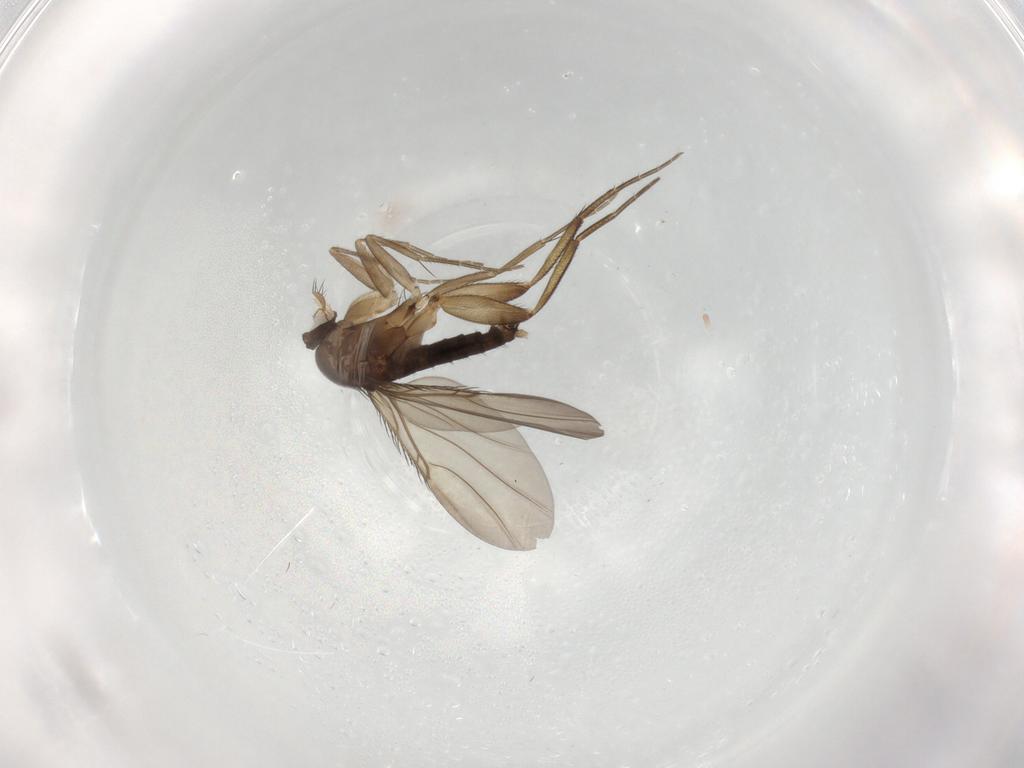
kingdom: Animalia
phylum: Arthropoda
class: Insecta
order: Diptera
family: Phoridae
